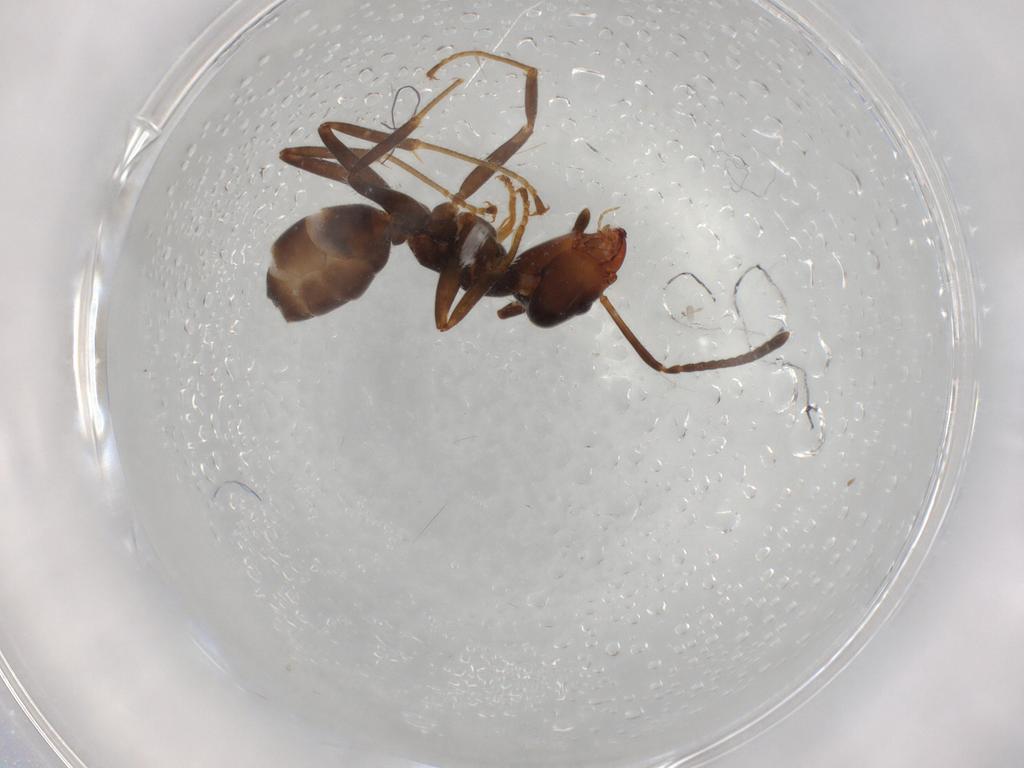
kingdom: Animalia
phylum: Arthropoda
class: Insecta
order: Hymenoptera
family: Formicidae
